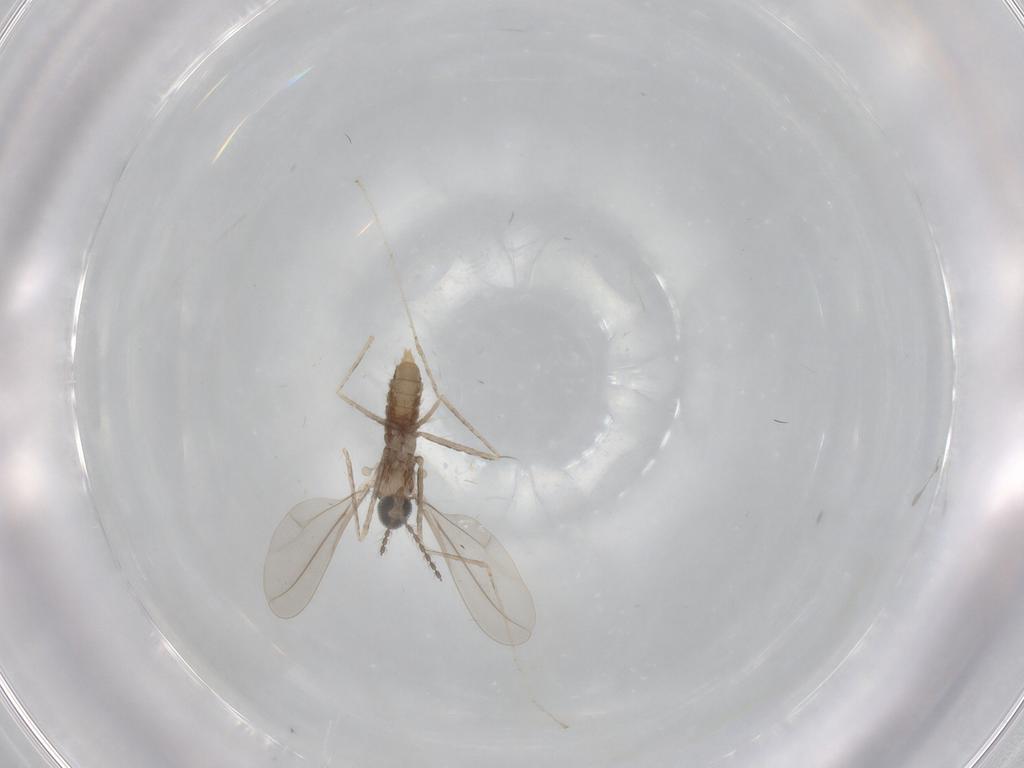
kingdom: Animalia
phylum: Arthropoda
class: Insecta
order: Diptera
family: Cecidomyiidae
